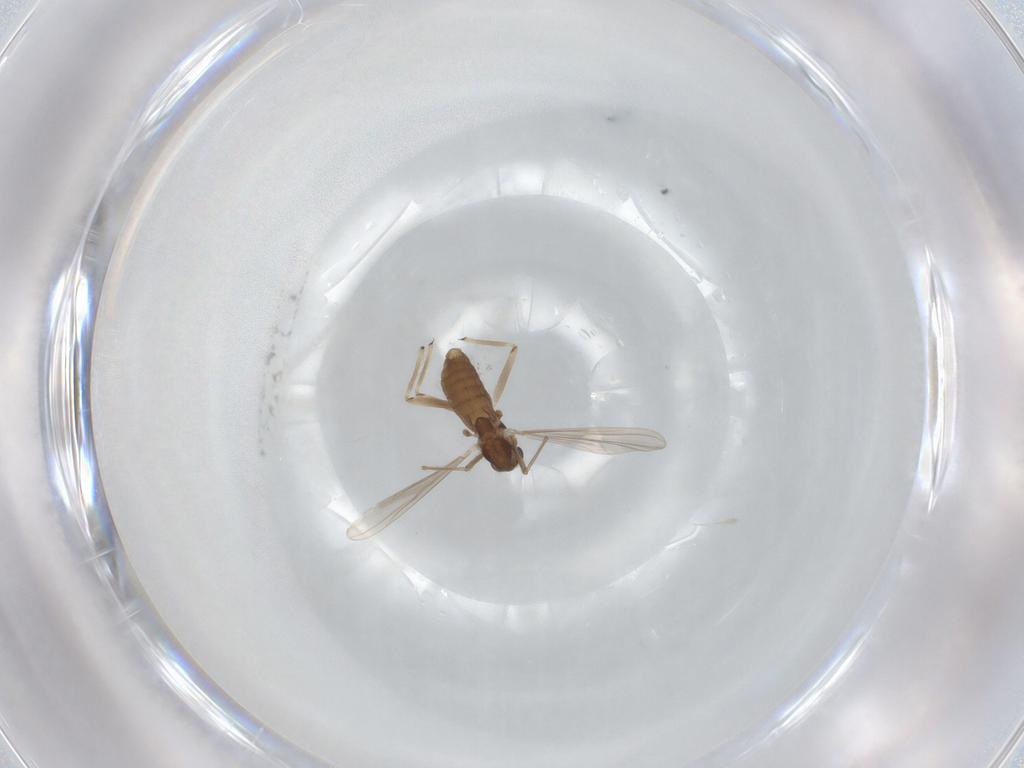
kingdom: Animalia
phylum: Arthropoda
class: Insecta
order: Diptera
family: Chironomidae
